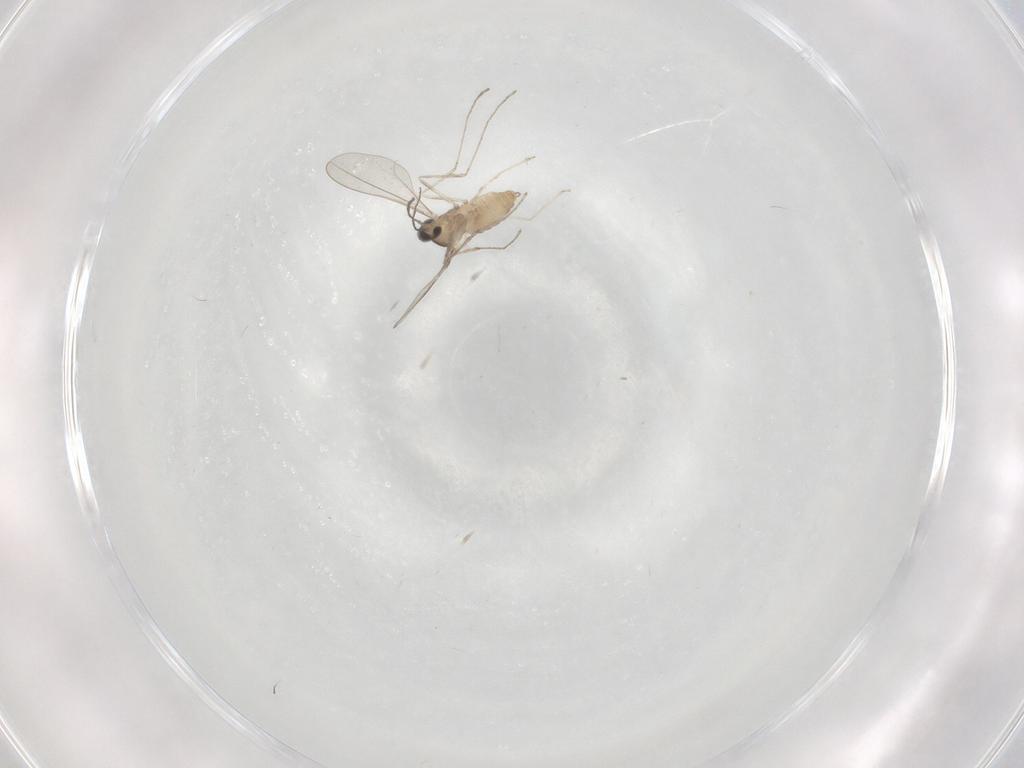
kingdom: Animalia
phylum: Arthropoda
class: Insecta
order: Diptera
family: Cecidomyiidae
